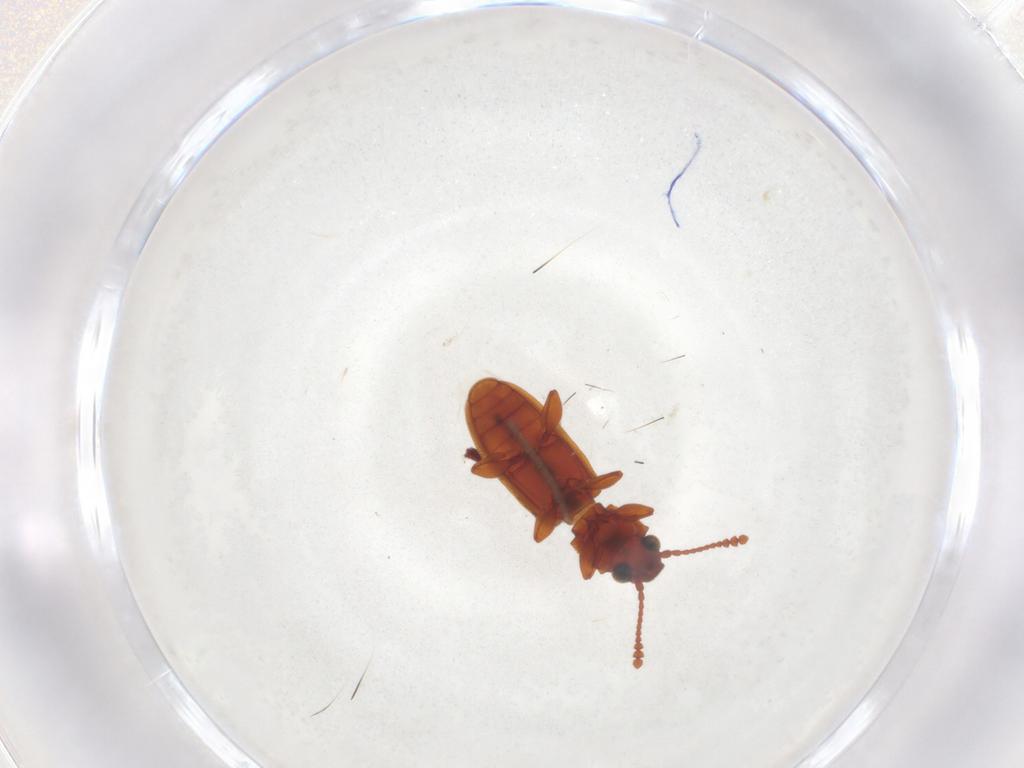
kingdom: Animalia
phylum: Arthropoda
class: Insecta
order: Coleoptera
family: Silvanidae
